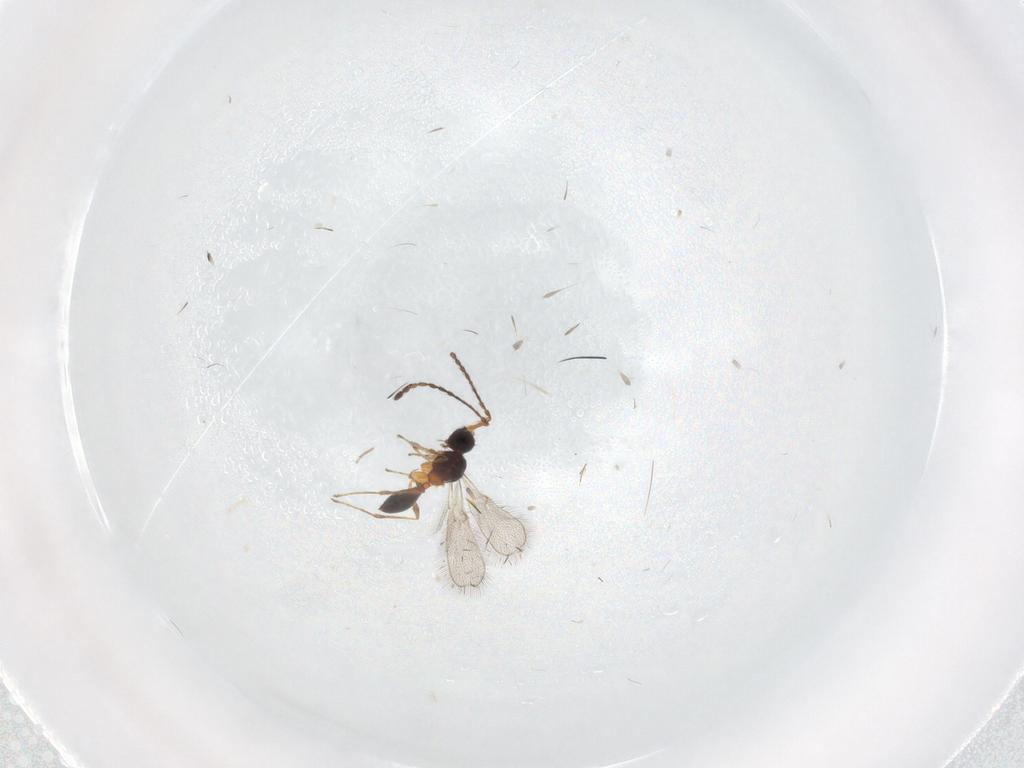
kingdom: Animalia
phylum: Arthropoda
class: Insecta
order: Hymenoptera
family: Diapriidae
